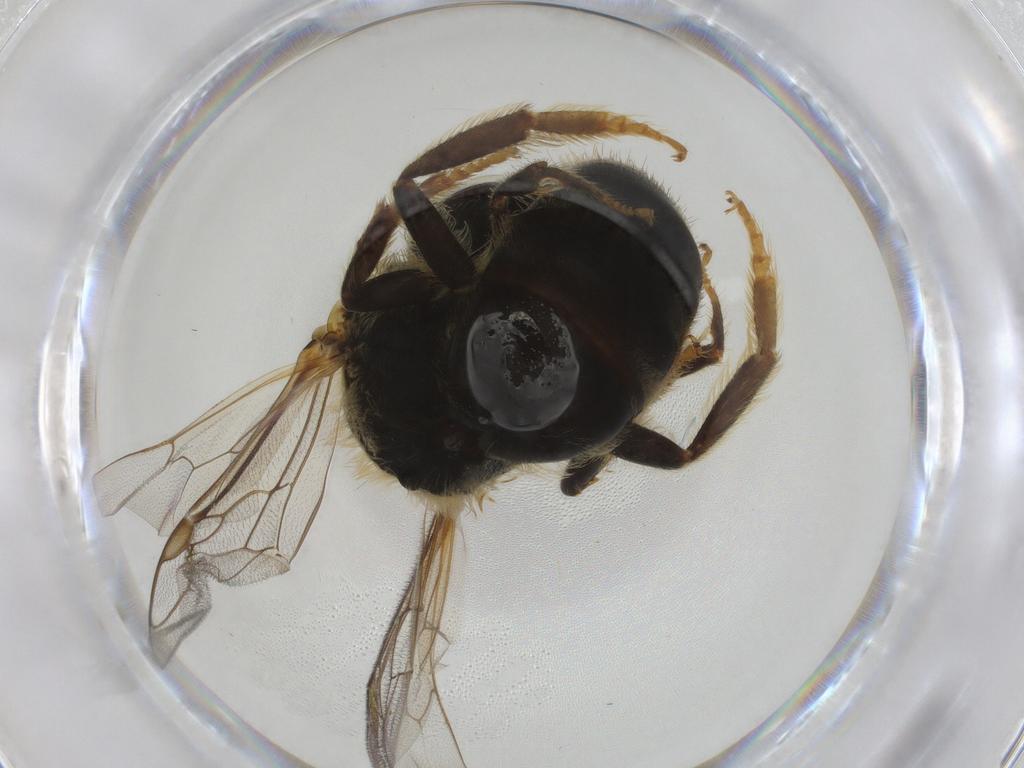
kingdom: Animalia
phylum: Arthropoda
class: Insecta
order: Hymenoptera
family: Halictidae
